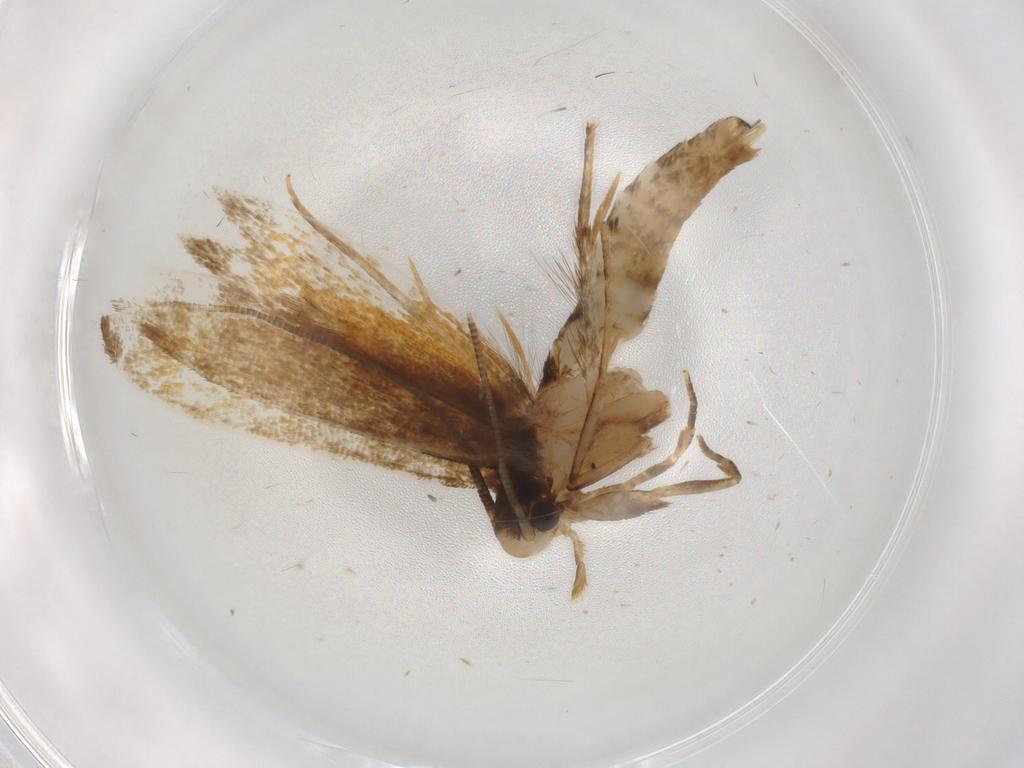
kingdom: Animalia
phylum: Arthropoda
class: Insecta
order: Lepidoptera
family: Tineidae
